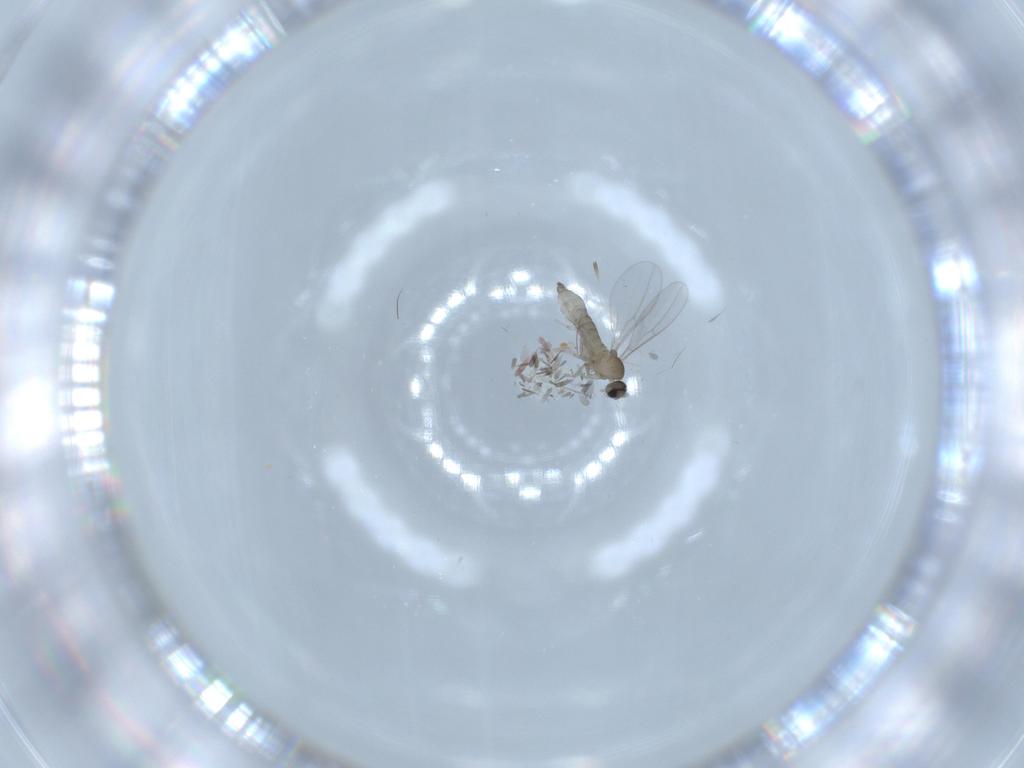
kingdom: Animalia
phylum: Arthropoda
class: Insecta
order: Diptera
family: Cecidomyiidae
